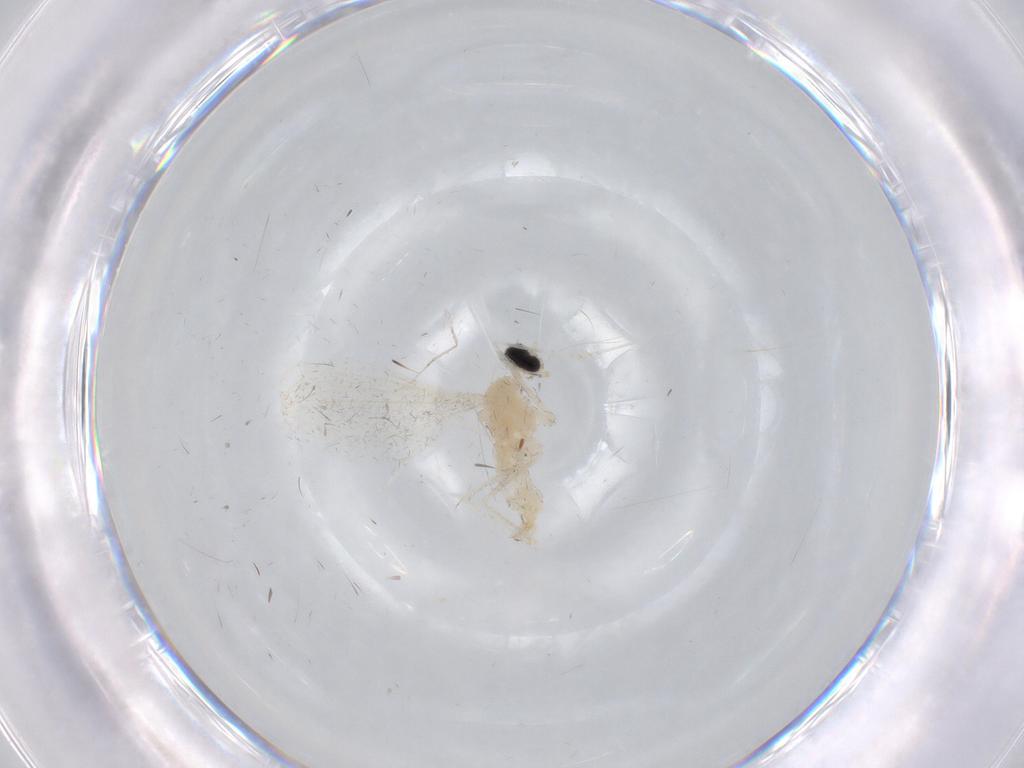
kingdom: Animalia
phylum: Arthropoda
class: Insecta
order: Diptera
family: Cecidomyiidae
